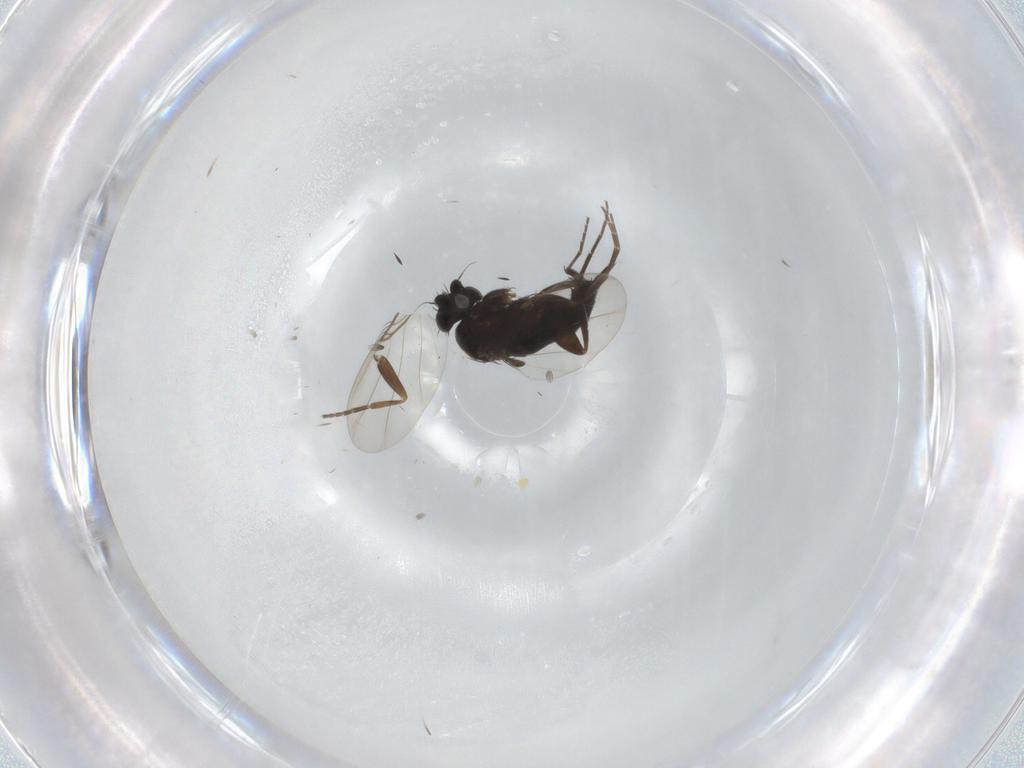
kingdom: Animalia
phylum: Arthropoda
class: Insecta
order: Diptera
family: Phoridae
